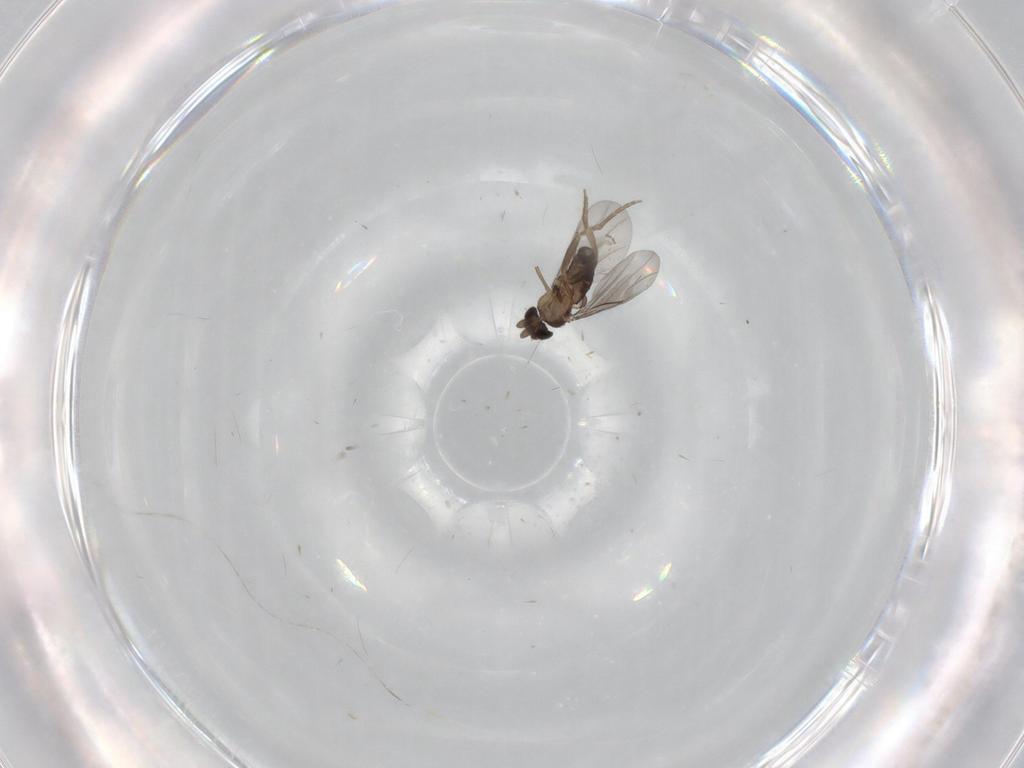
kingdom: Animalia
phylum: Arthropoda
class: Insecta
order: Diptera
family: Phoridae
